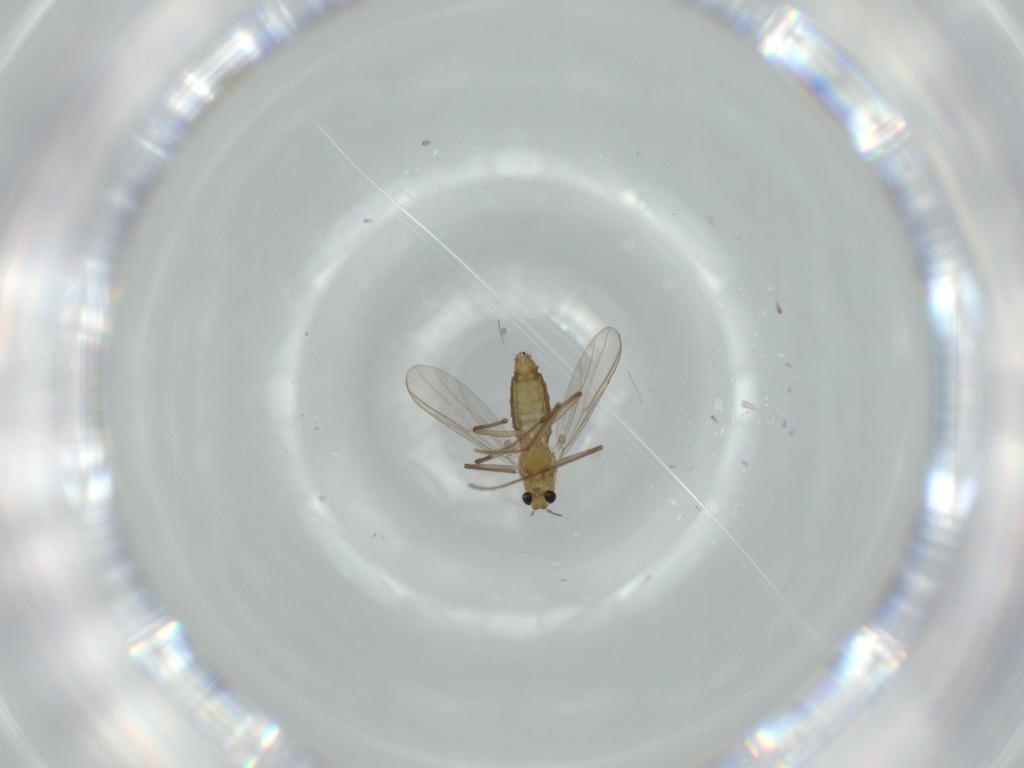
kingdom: Animalia
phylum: Arthropoda
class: Insecta
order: Diptera
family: Chironomidae
